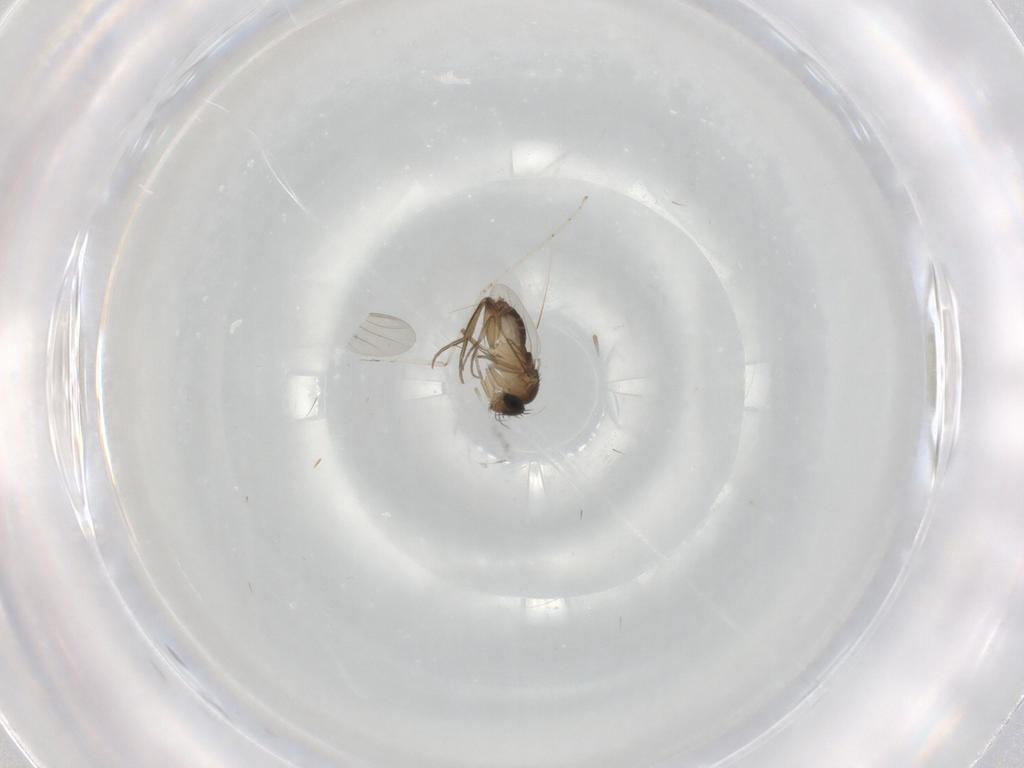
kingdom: Animalia
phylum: Arthropoda
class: Insecta
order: Diptera
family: Phoridae
